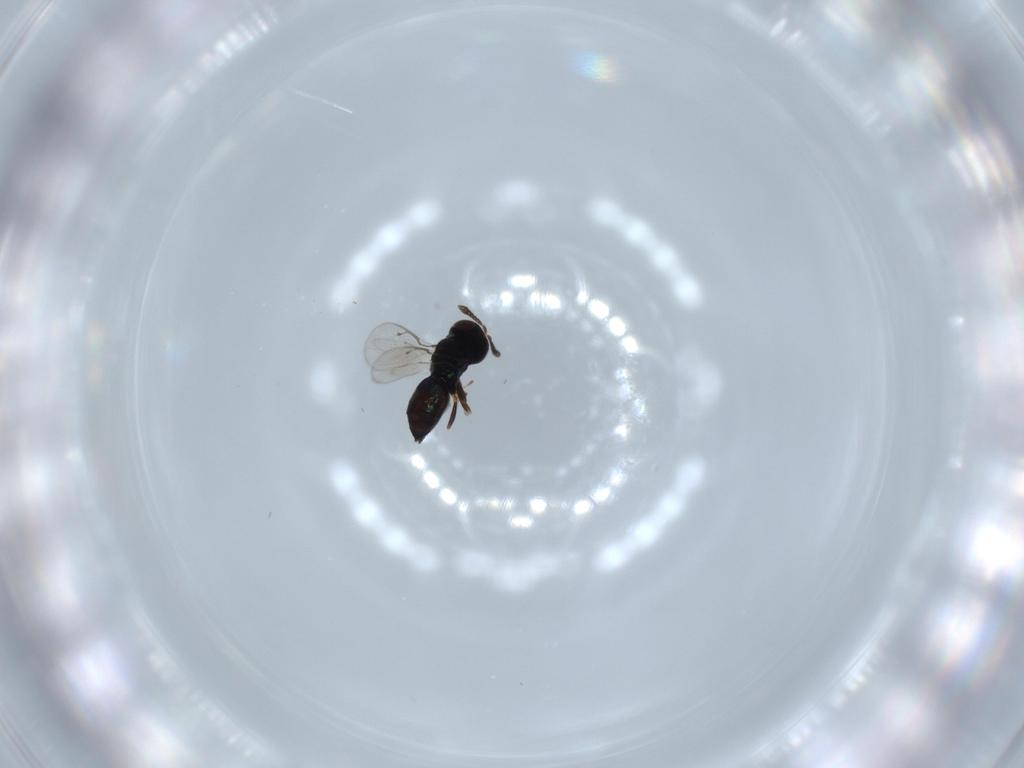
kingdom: Animalia
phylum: Arthropoda
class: Insecta
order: Hymenoptera
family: Pteromalidae
